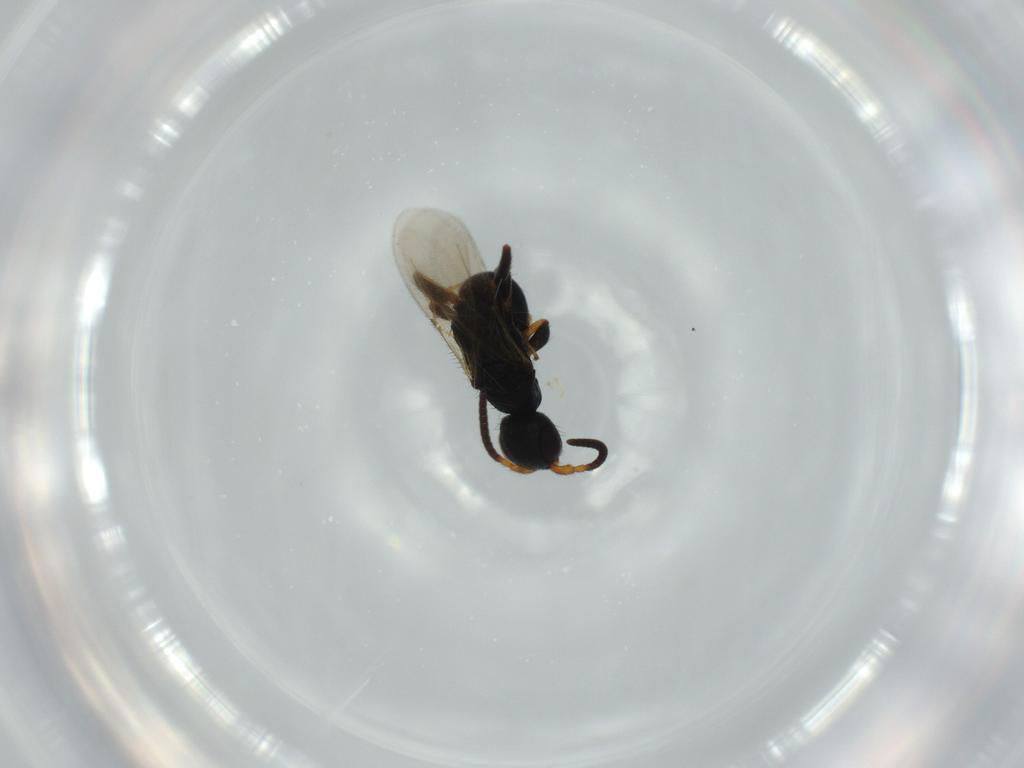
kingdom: Animalia
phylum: Arthropoda
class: Insecta
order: Hymenoptera
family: Bethylidae
